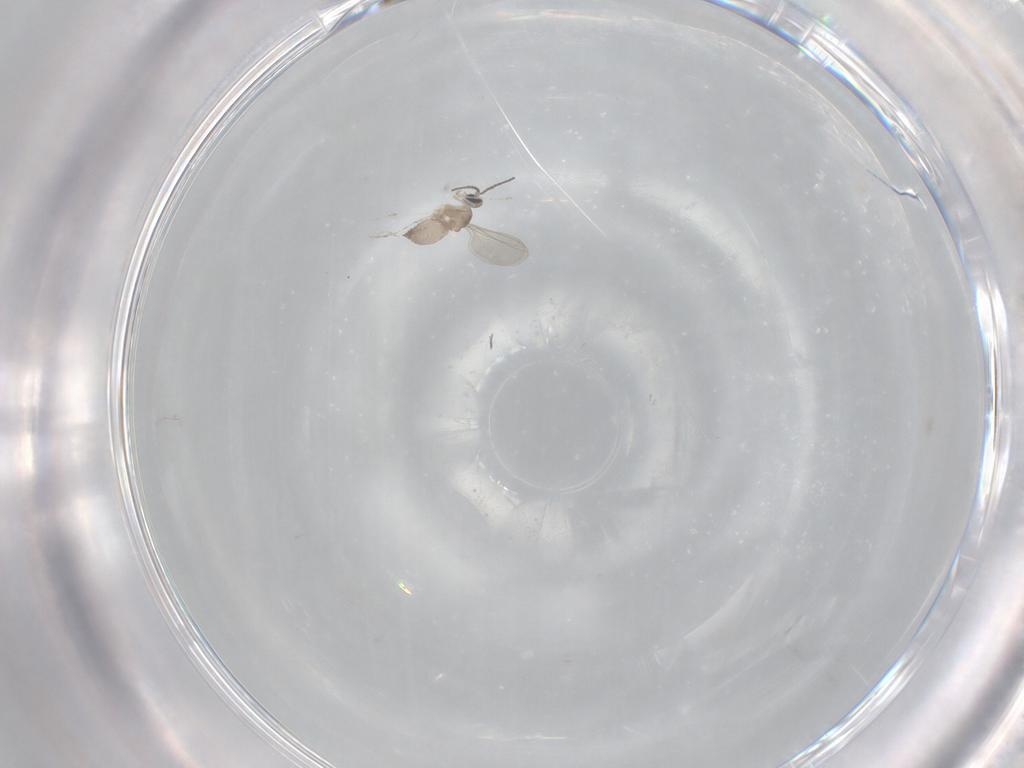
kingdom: Animalia
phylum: Arthropoda
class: Insecta
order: Diptera
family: Cecidomyiidae
